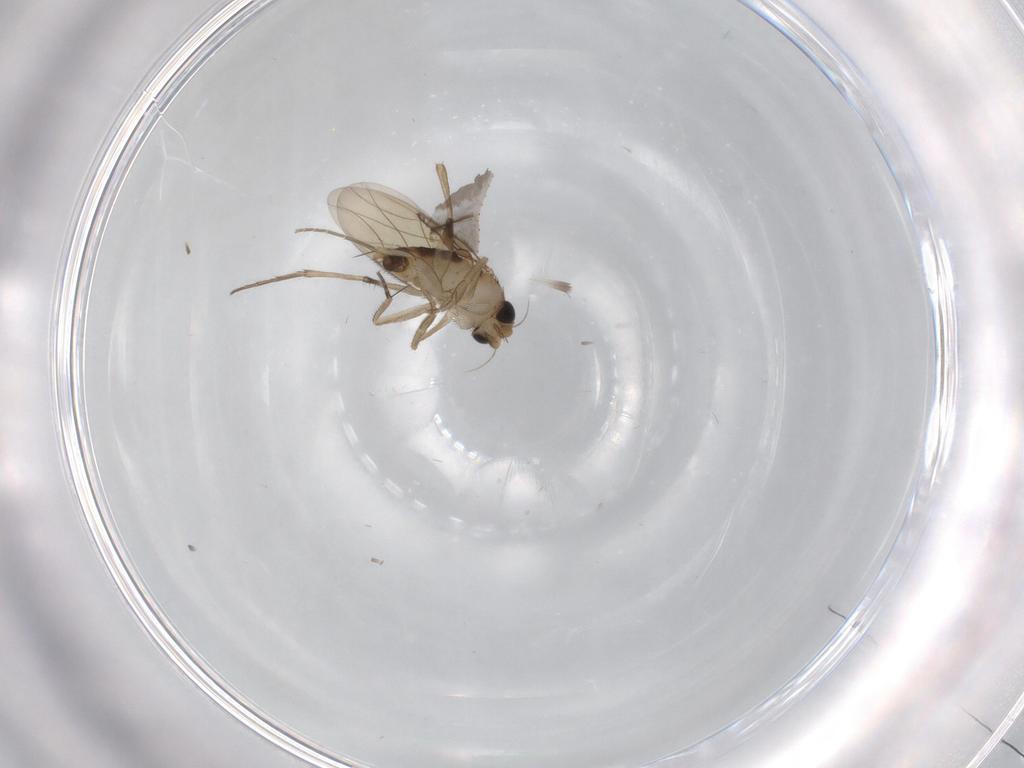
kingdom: Animalia
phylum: Arthropoda
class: Insecta
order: Diptera
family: Phoridae
